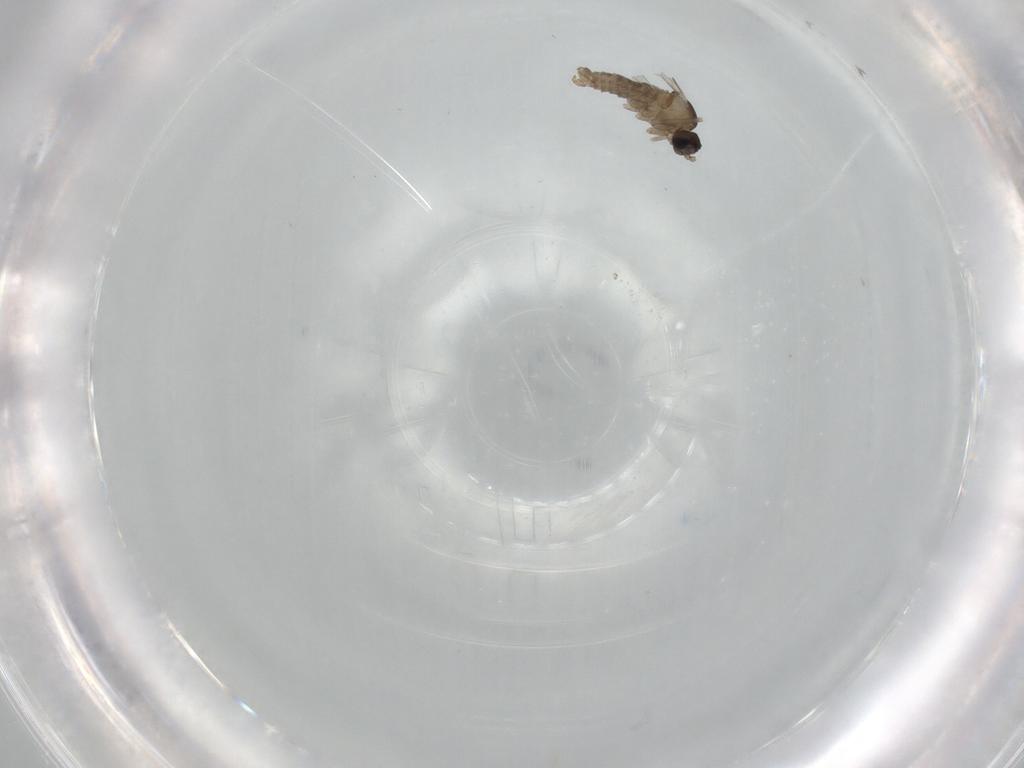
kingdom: Animalia
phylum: Arthropoda
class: Insecta
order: Diptera
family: Cecidomyiidae
